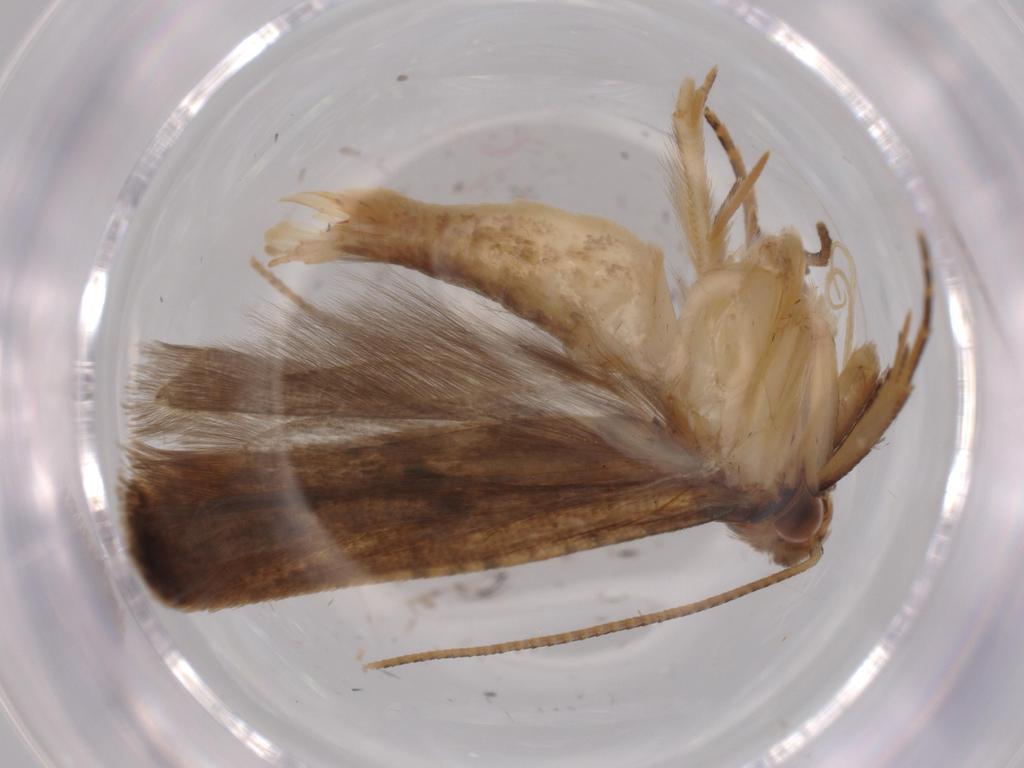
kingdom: Animalia
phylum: Arthropoda
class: Insecta
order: Lepidoptera
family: Gelechiidae
